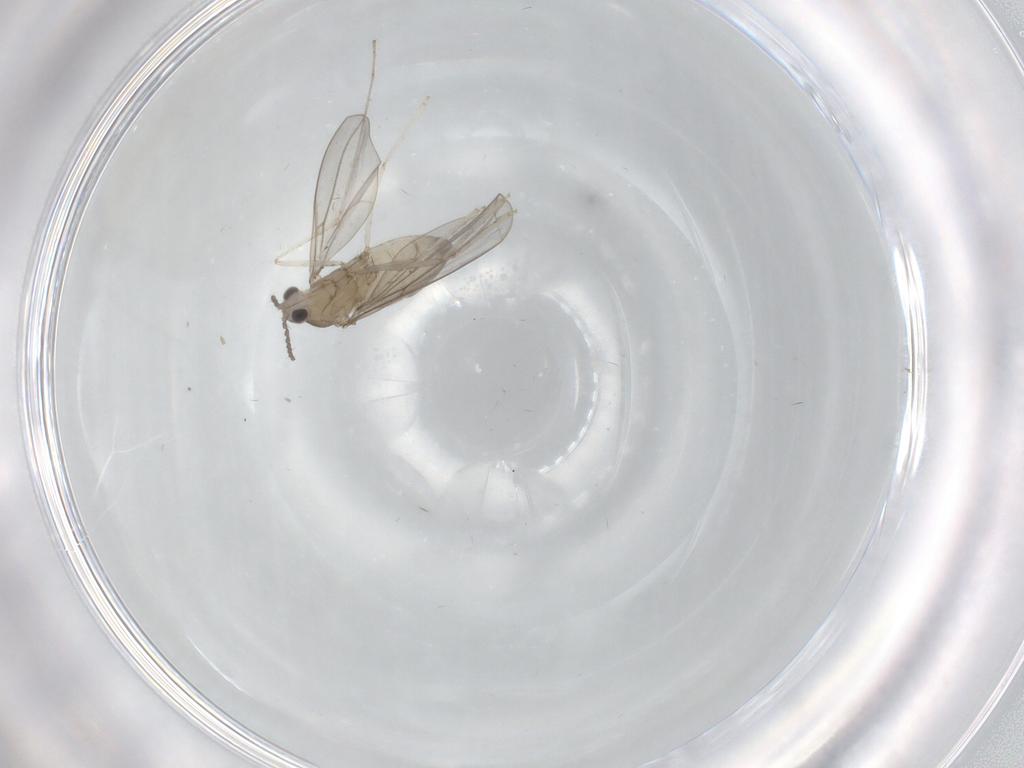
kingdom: Animalia
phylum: Arthropoda
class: Insecta
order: Diptera
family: Cecidomyiidae
